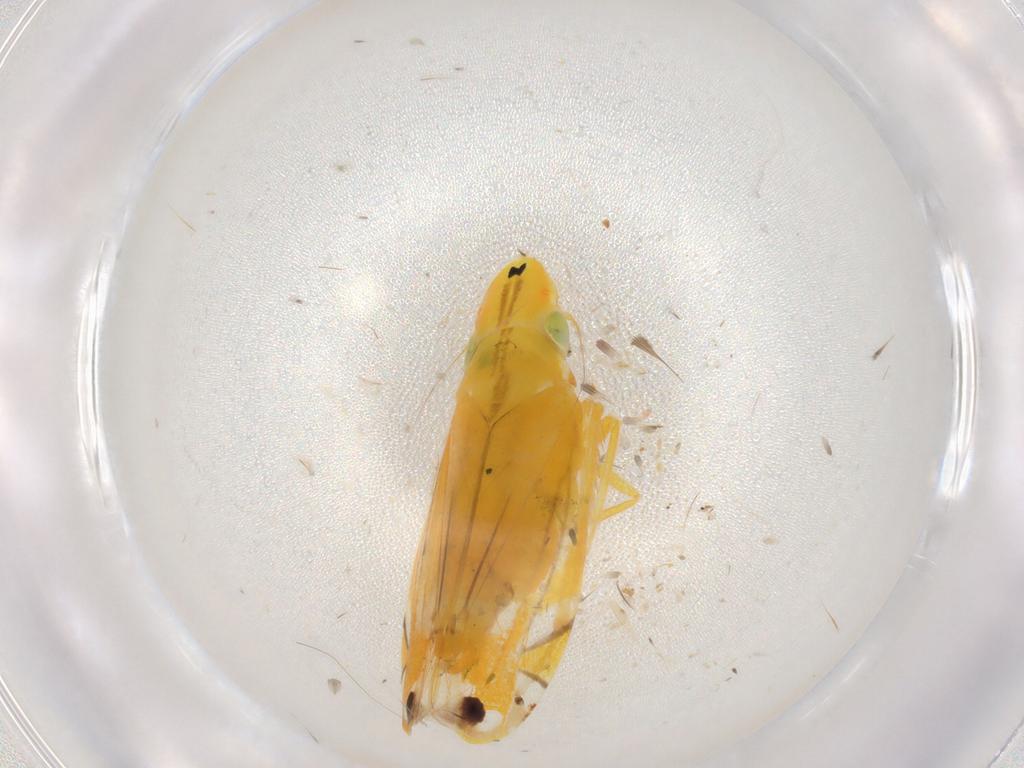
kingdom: Animalia
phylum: Arthropoda
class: Insecta
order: Hemiptera
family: Cicadellidae
